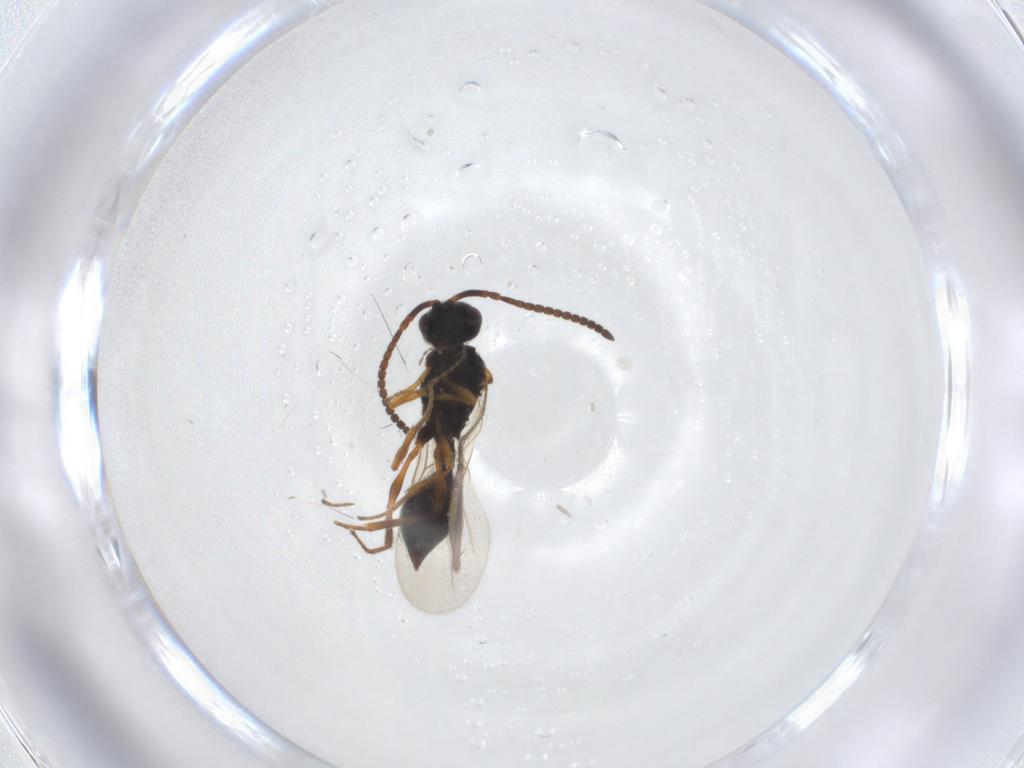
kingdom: Animalia
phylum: Arthropoda
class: Insecta
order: Hymenoptera
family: Diapriidae
